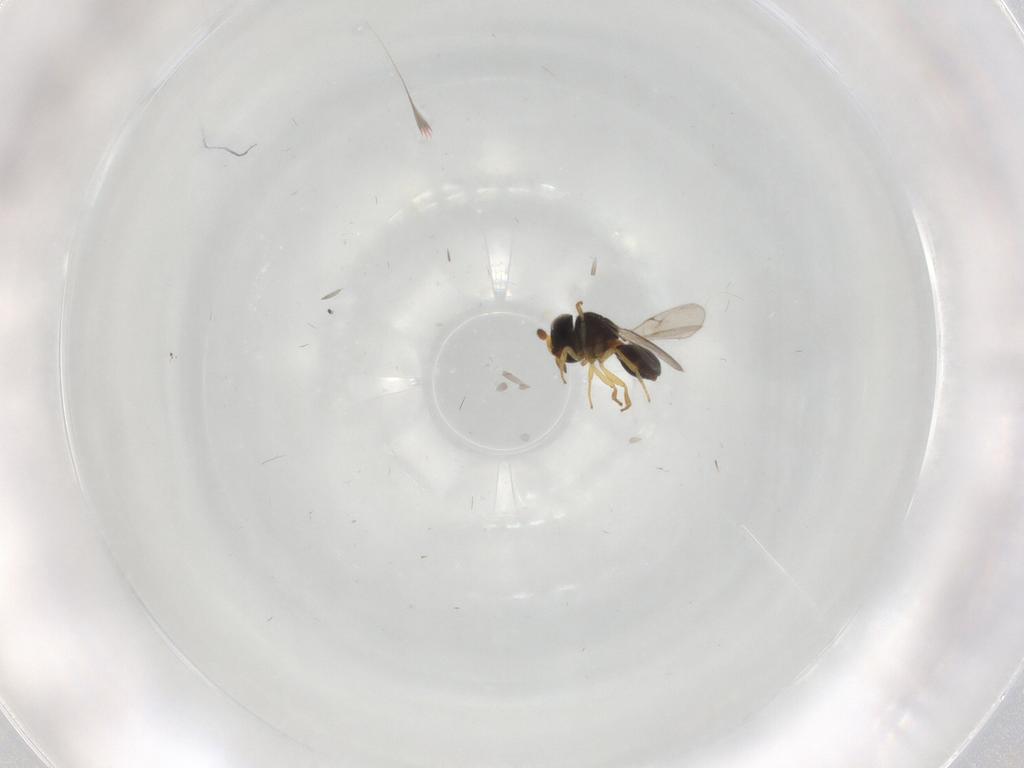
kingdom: Animalia
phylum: Arthropoda
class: Insecta
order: Hymenoptera
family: Scelionidae
